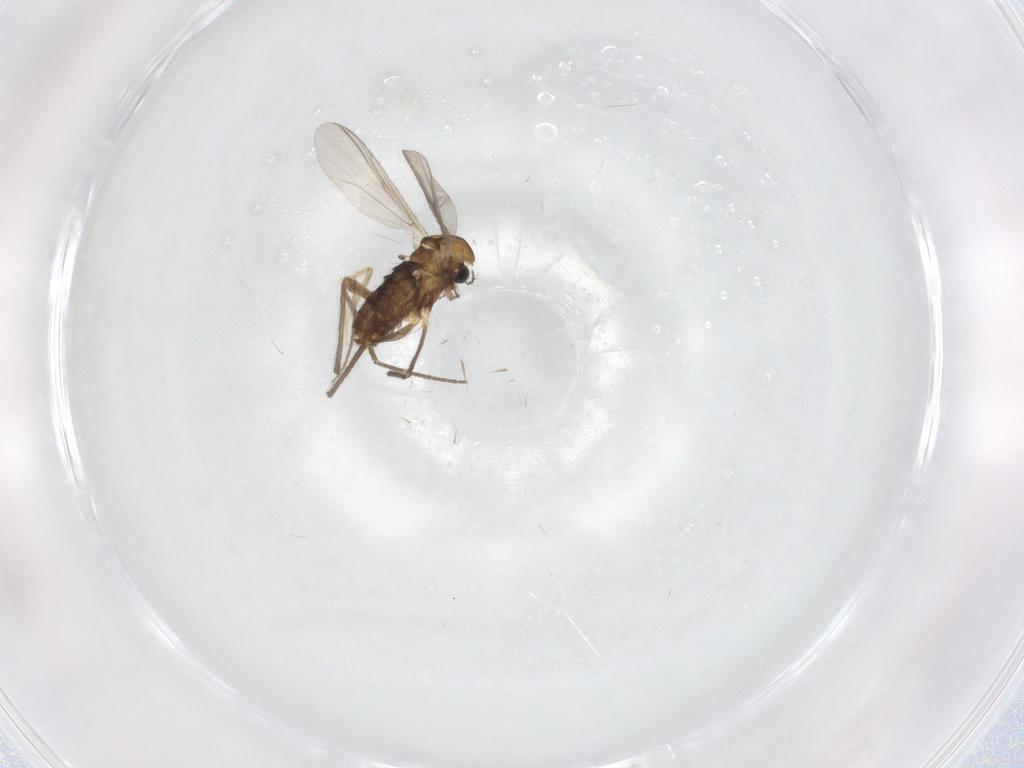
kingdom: Animalia
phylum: Arthropoda
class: Insecta
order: Diptera
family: Chironomidae
